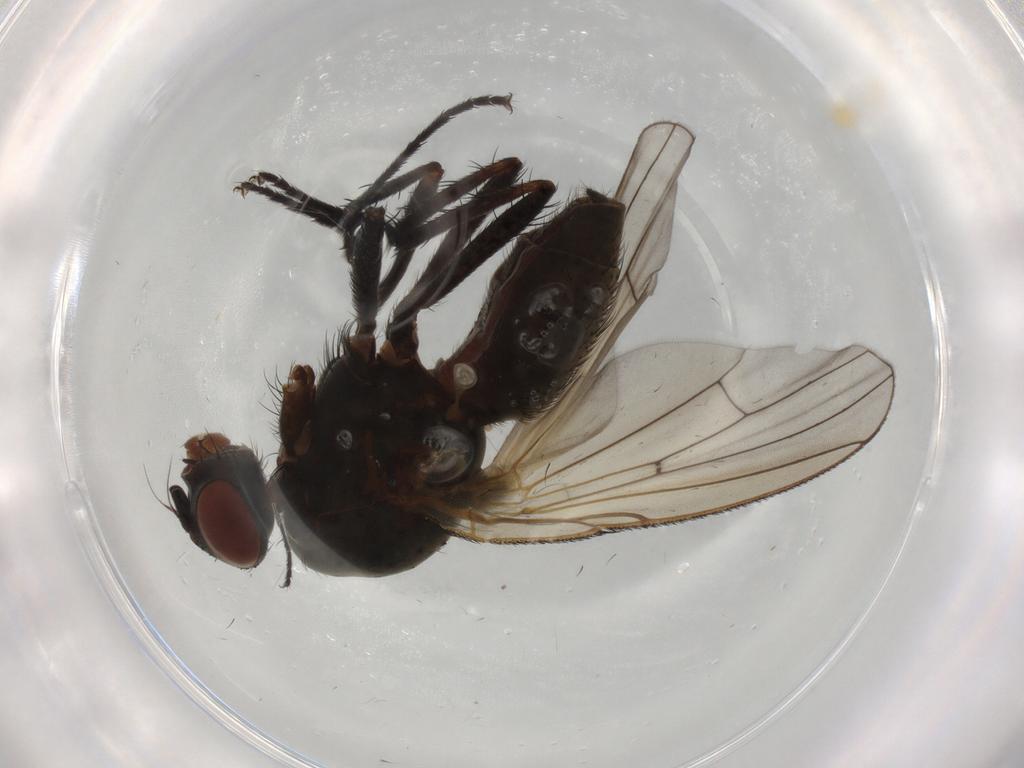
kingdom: Animalia
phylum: Arthropoda
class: Insecta
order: Diptera
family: Anthomyiidae
